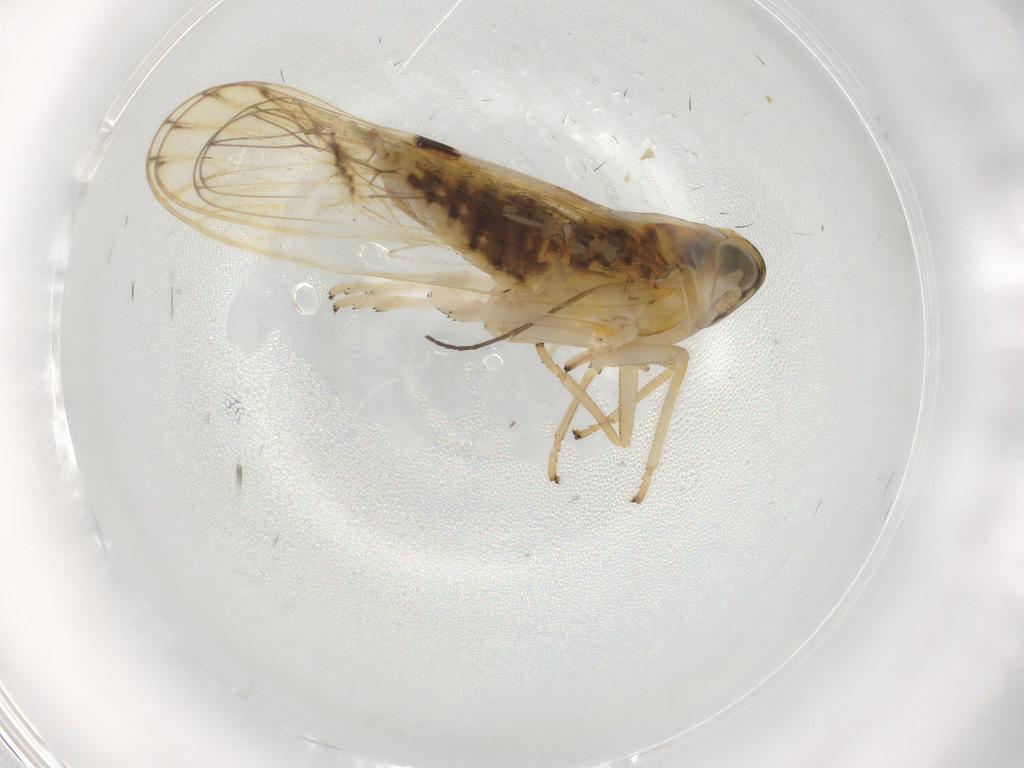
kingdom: Animalia
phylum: Arthropoda
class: Insecta
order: Hemiptera
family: Delphacidae
